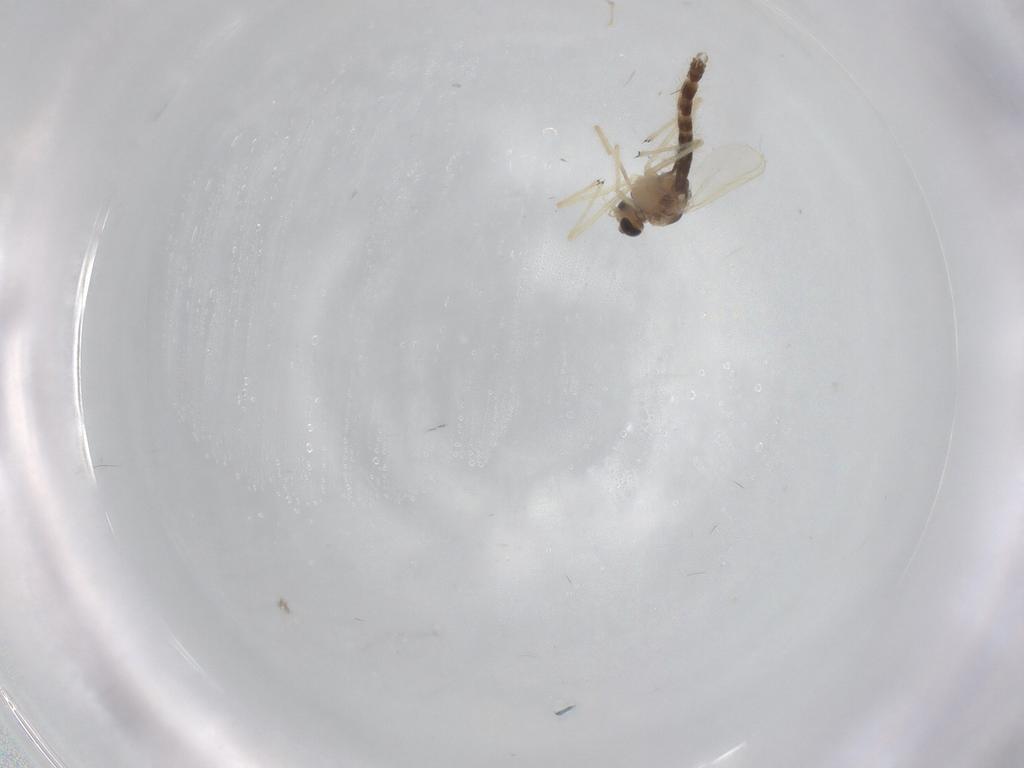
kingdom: Animalia
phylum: Arthropoda
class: Insecta
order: Diptera
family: Chironomidae
